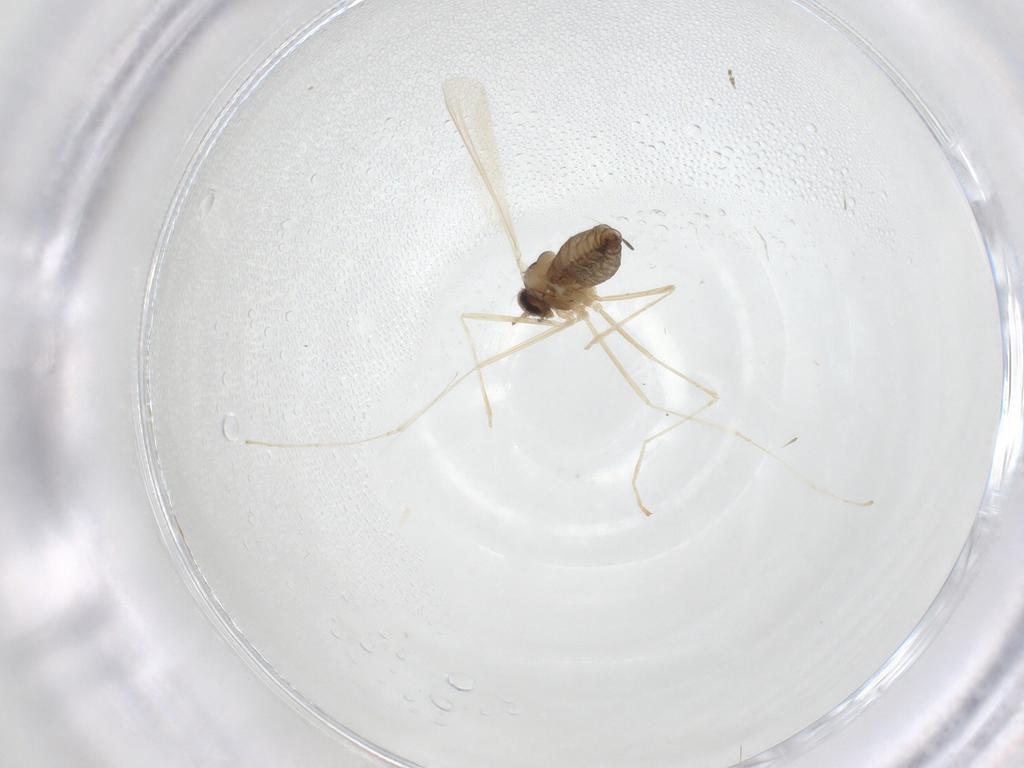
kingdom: Animalia
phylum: Arthropoda
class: Insecta
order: Diptera
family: Cecidomyiidae
